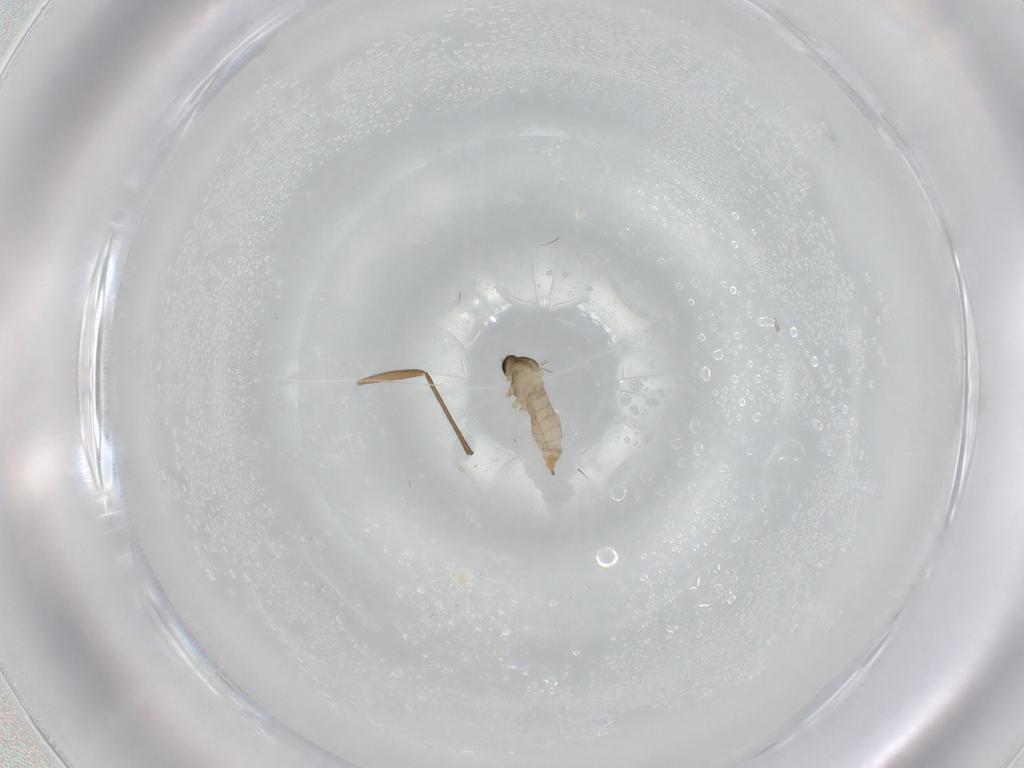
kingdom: Animalia
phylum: Arthropoda
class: Insecta
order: Diptera
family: Cecidomyiidae
